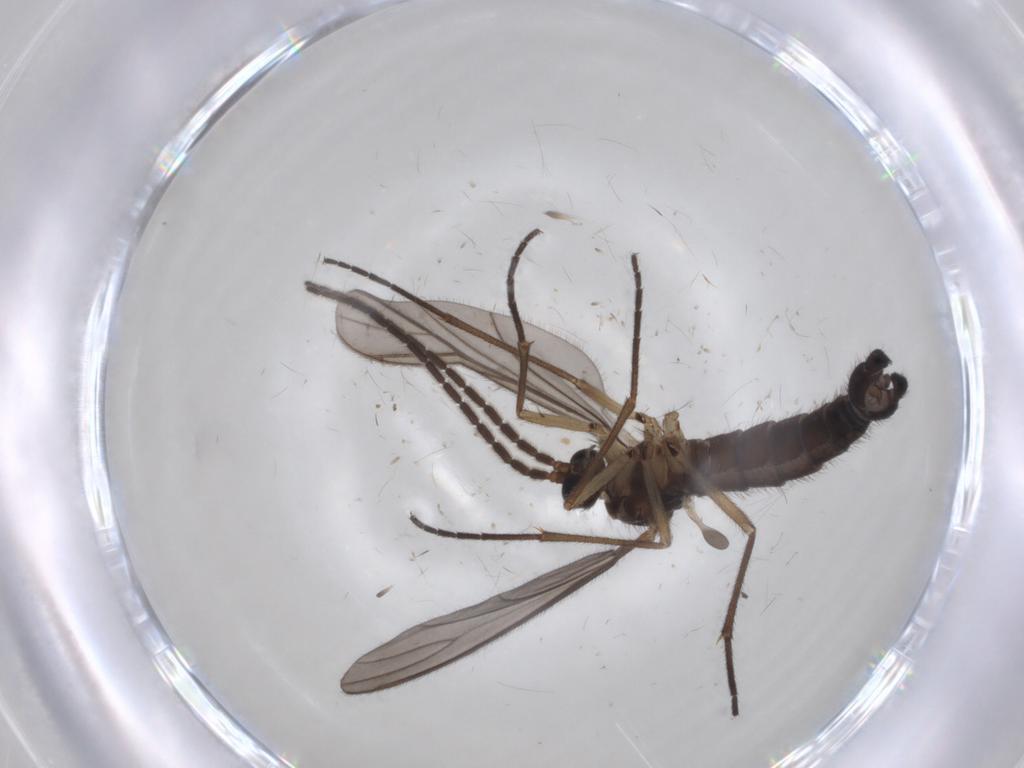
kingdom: Animalia
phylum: Arthropoda
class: Insecta
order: Diptera
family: Sciaridae
